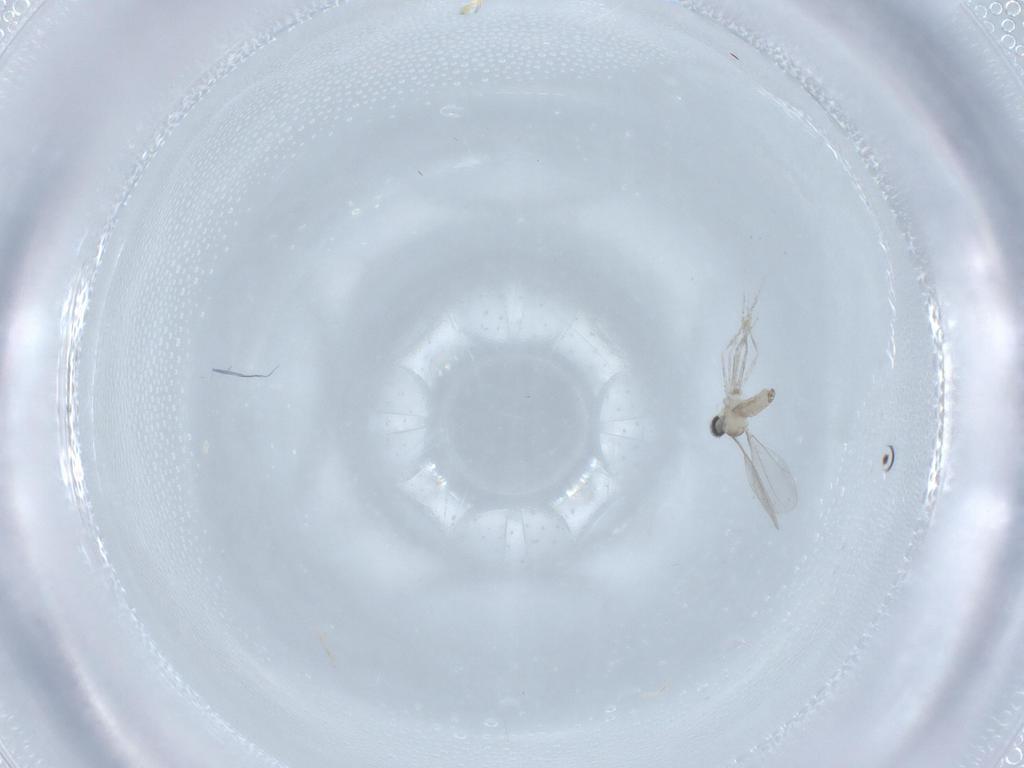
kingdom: Animalia
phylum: Arthropoda
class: Insecta
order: Diptera
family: Cecidomyiidae
